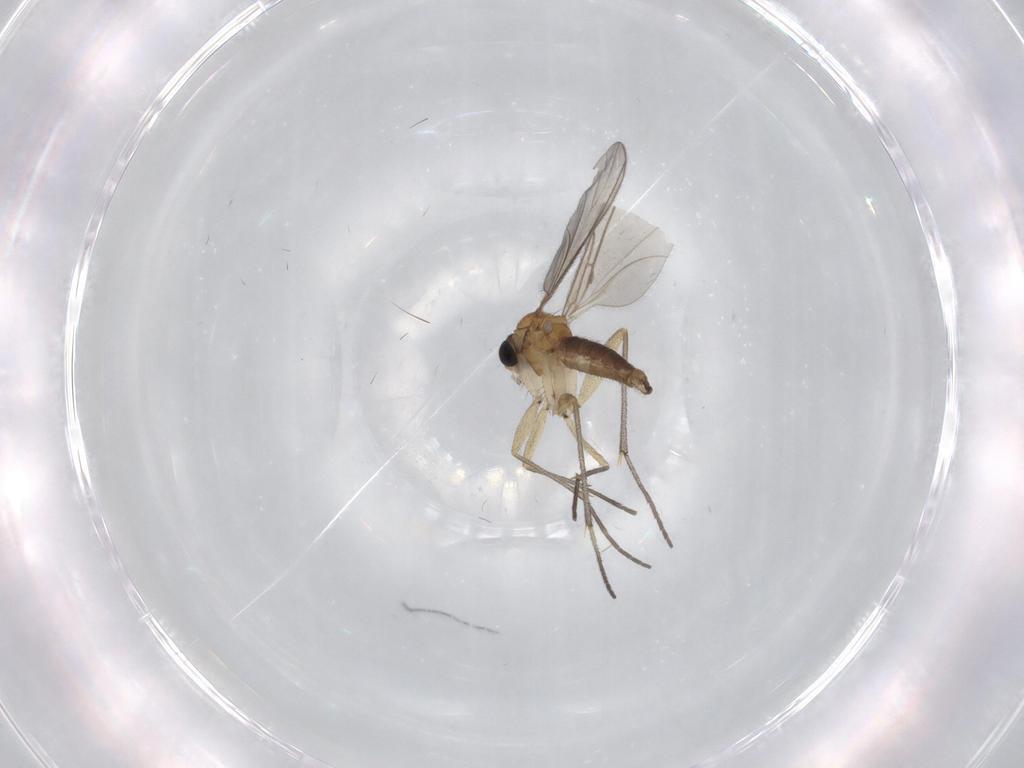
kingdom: Animalia
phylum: Arthropoda
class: Insecta
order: Diptera
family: Sciaridae
